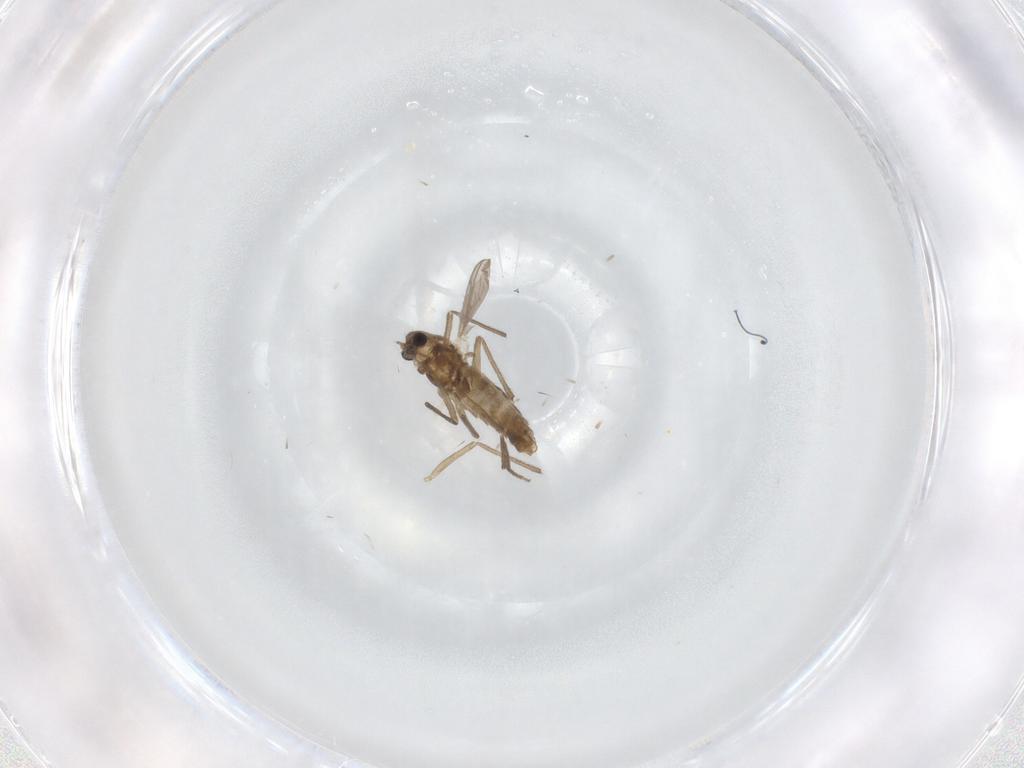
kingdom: Animalia
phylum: Arthropoda
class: Insecta
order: Diptera
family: Chironomidae
